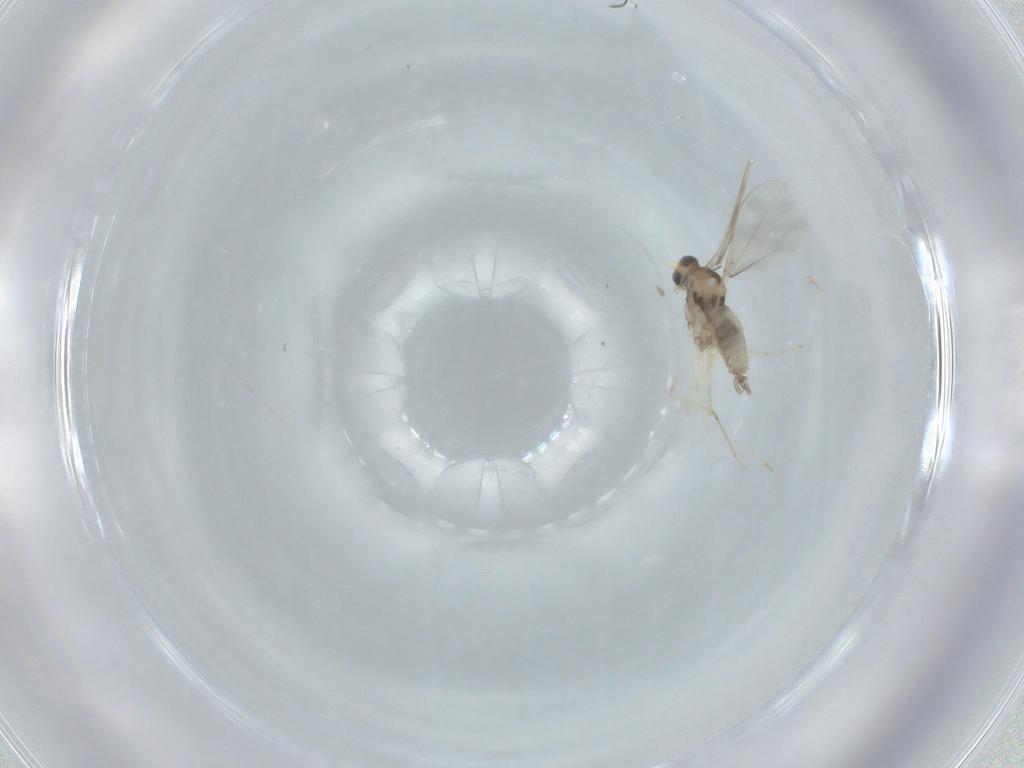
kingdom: Animalia
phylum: Arthropoda
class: Insecta
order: Diptera
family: Cecidomyiidae
